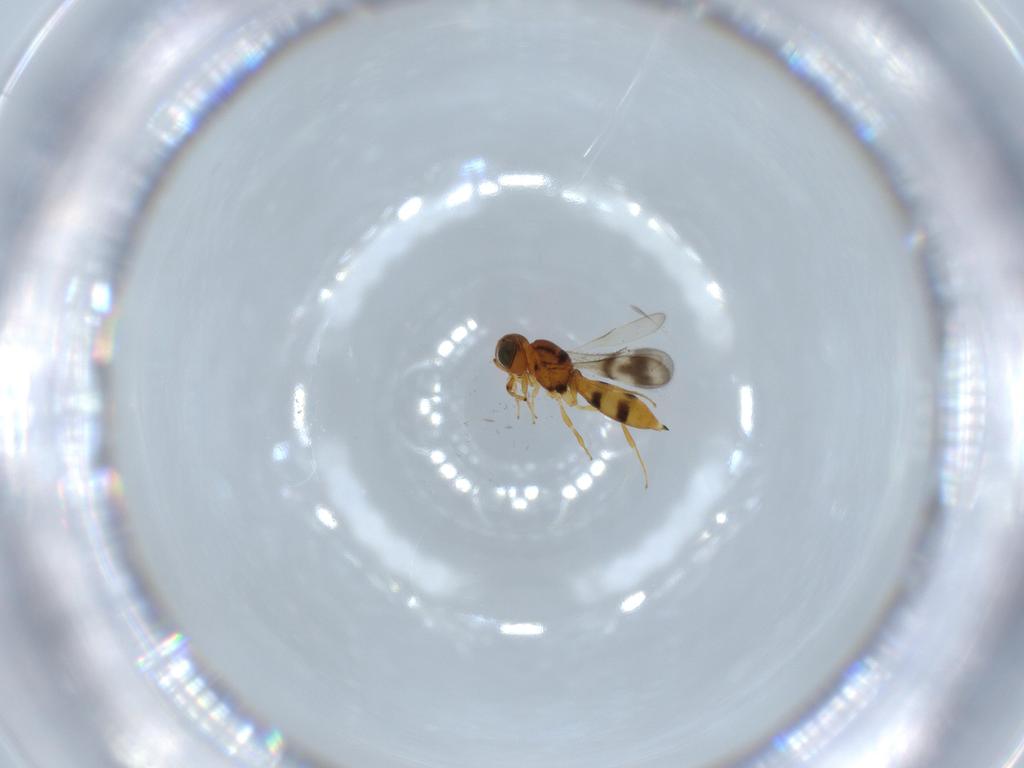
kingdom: Animalia
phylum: Arthropoda
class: Insecta
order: Hymenoptera
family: Scelionidae
